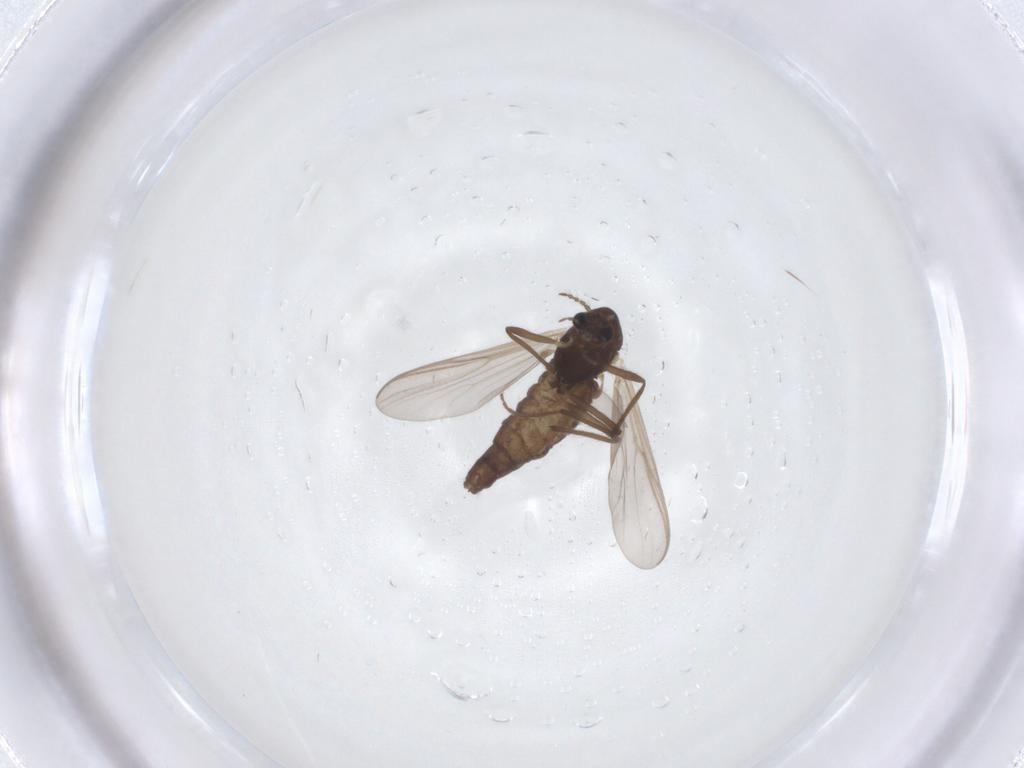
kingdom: Animalia
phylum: Arthropoda
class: Insecta
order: Diptera
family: Chironomidae
